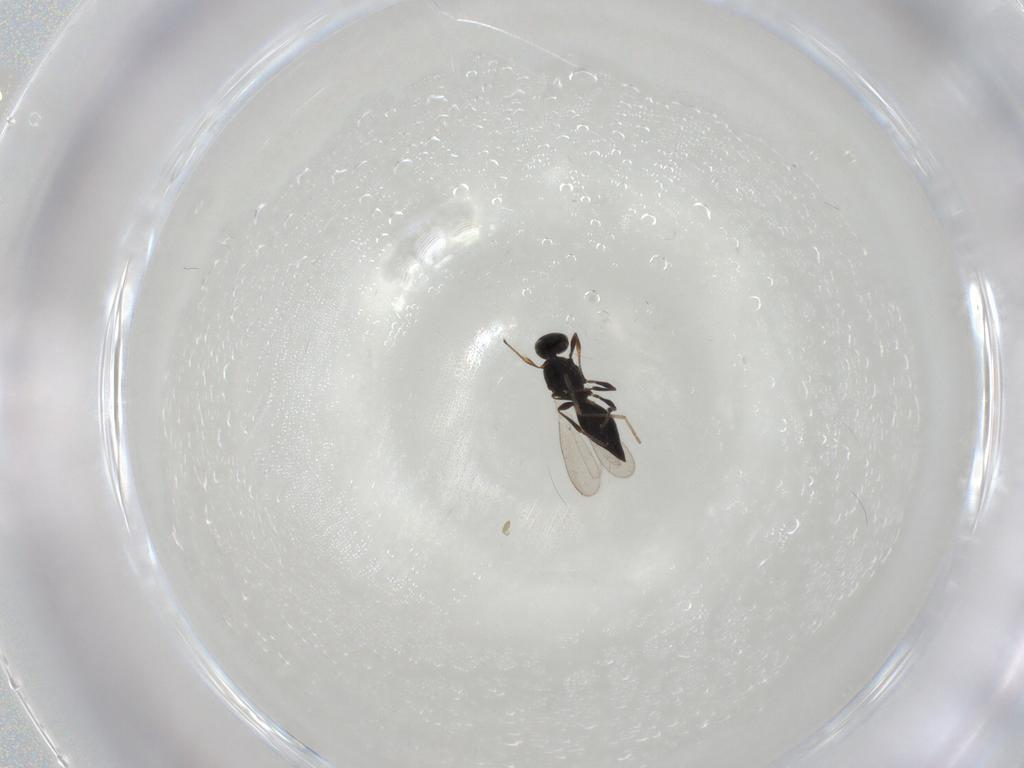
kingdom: Animalia
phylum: Arthropoda
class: Insecta
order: Hymenoptera
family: Platygastridae
